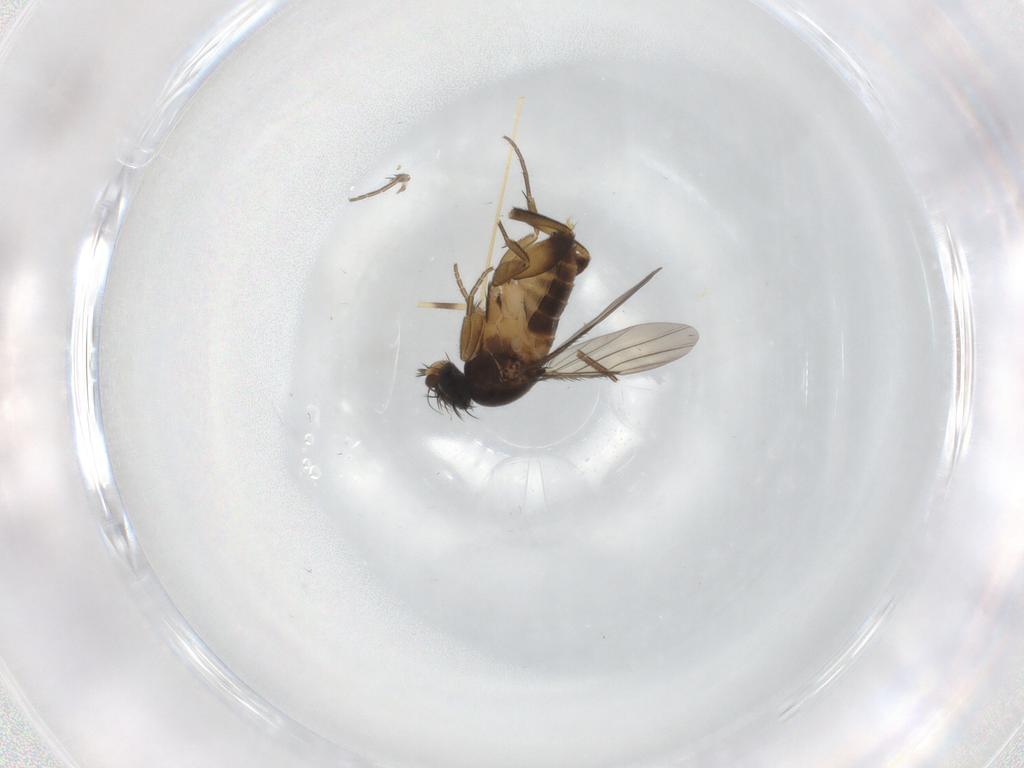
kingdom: Animalia
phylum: Arthropoda
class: Insecta
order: Diptera
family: Phoridae
